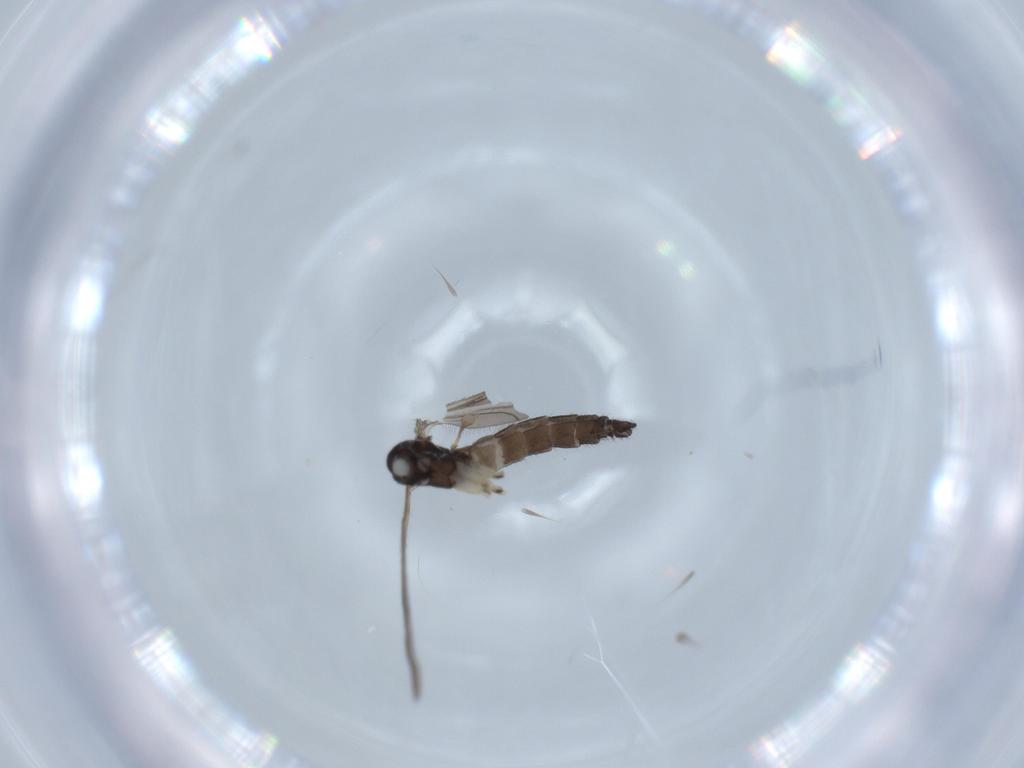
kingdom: Animalia
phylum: Arthropoda
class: Insecta
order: Diptera
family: Sciaridae
